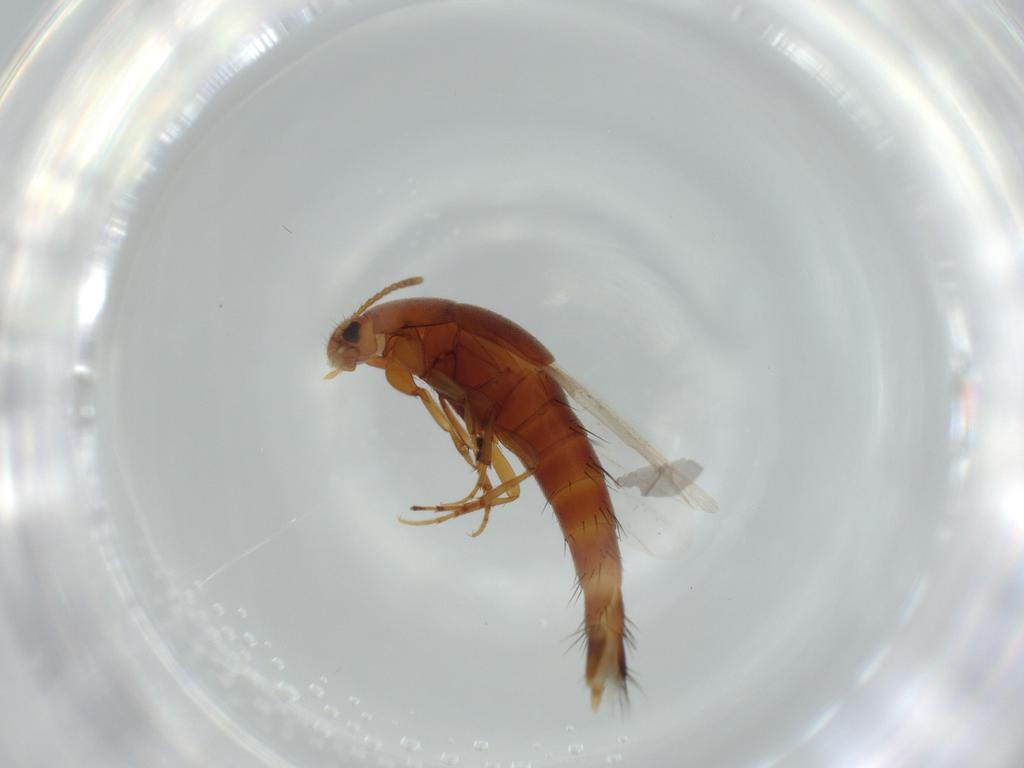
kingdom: Animalia
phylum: Arthropoda
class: Insecta
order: Coleoptera
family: Staphylinidae
